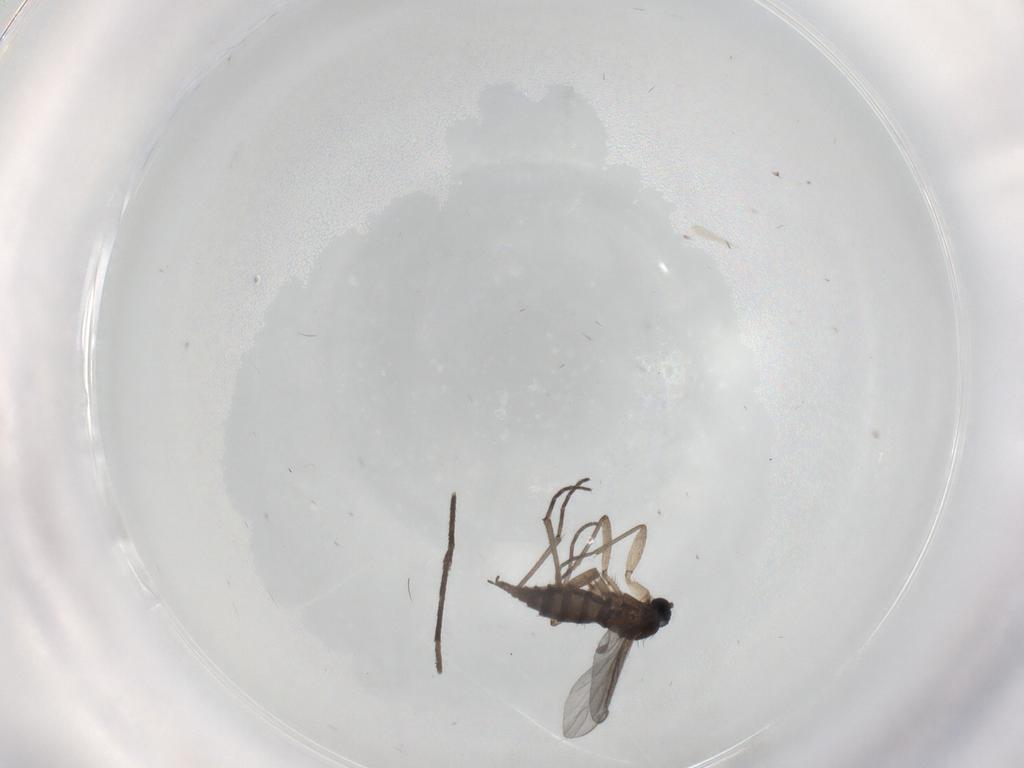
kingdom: Animalia
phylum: Arthropoda
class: Insecta
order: Diptera
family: Sciaridae
